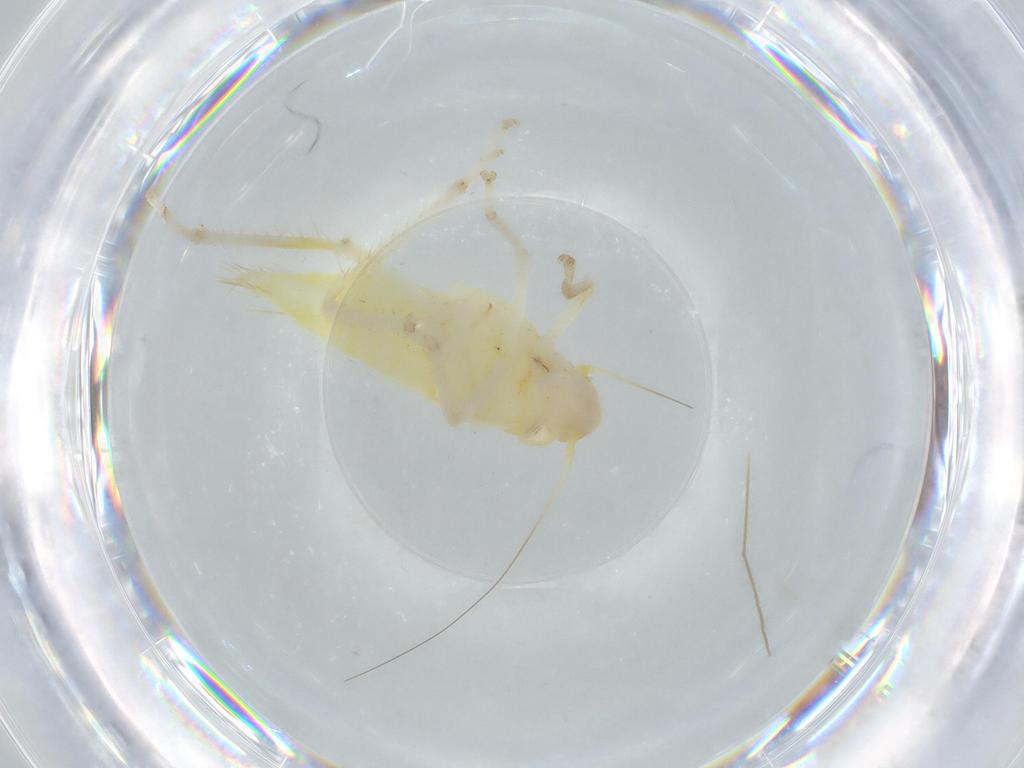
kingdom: Animalia
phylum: Arthropoda
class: Insecta
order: Hemiptera
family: Cicadellidae
